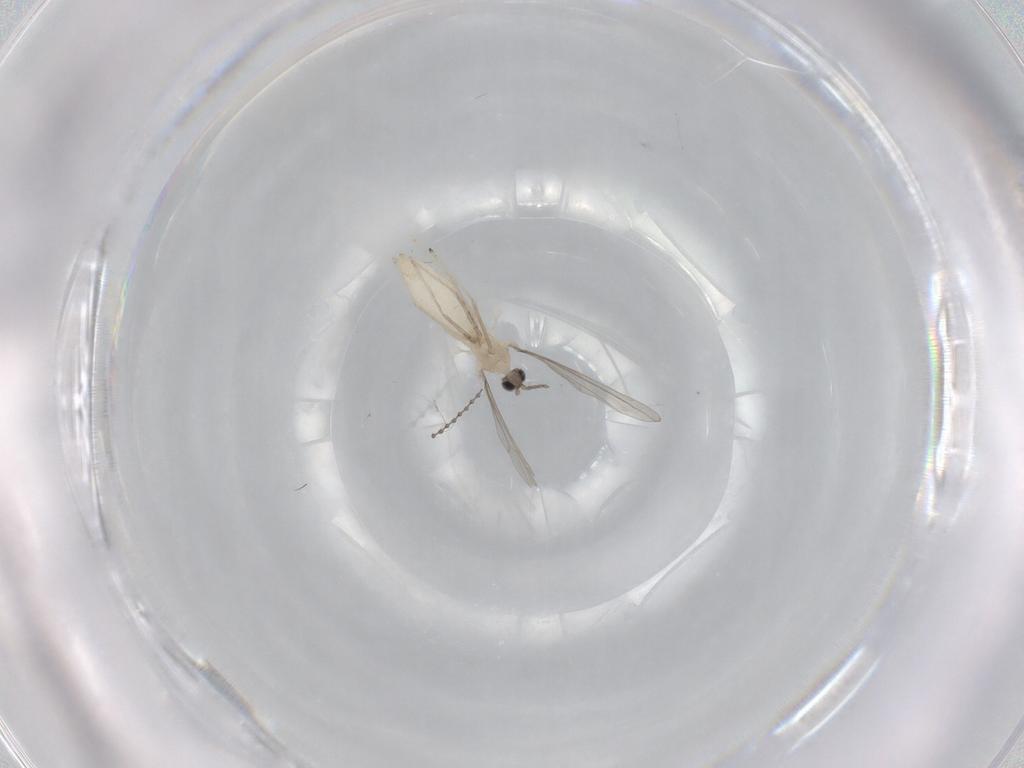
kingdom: Animalia
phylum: Arthropoda
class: Insecta
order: Diptera
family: Cecidomyiidae
